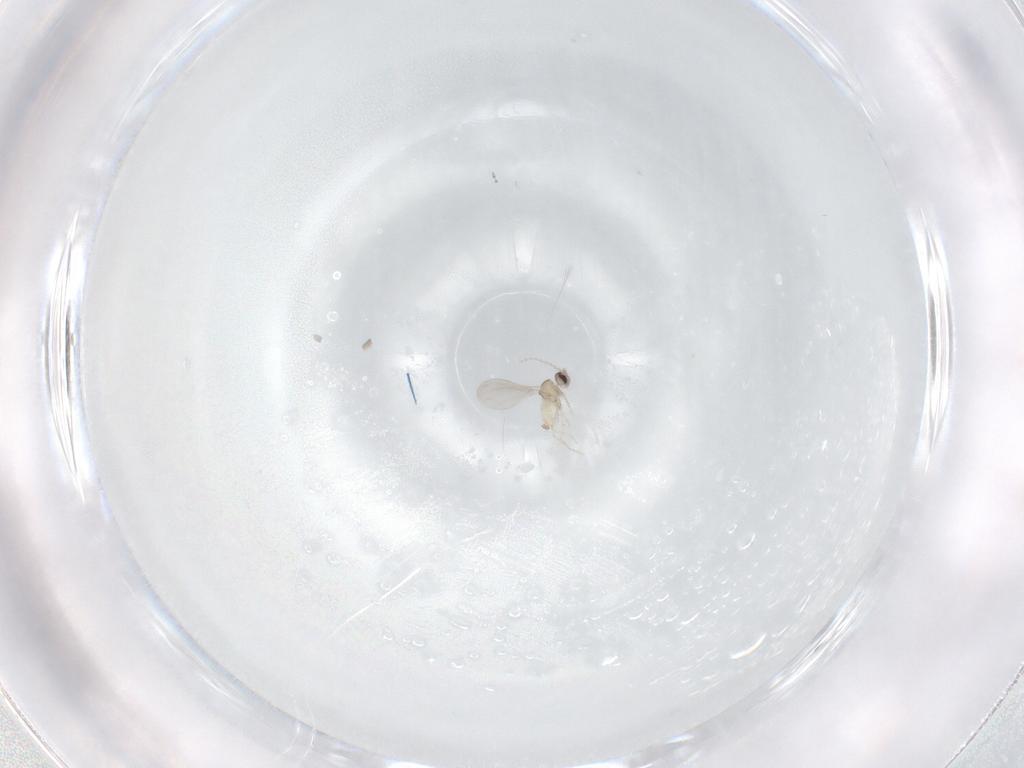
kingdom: Animalia
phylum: Arthropoda
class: Insecta
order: Diptera
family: Cecidomyiidae
